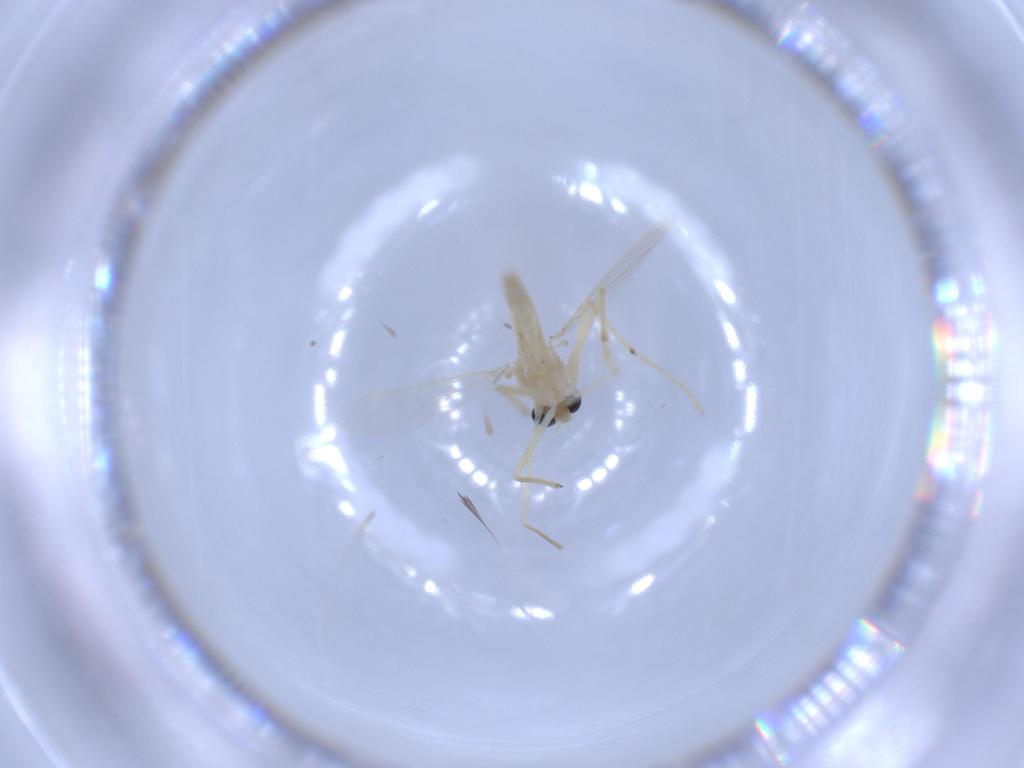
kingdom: Animalia
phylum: Arthropoda
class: Insecta
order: Diptera
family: Chironomidae
